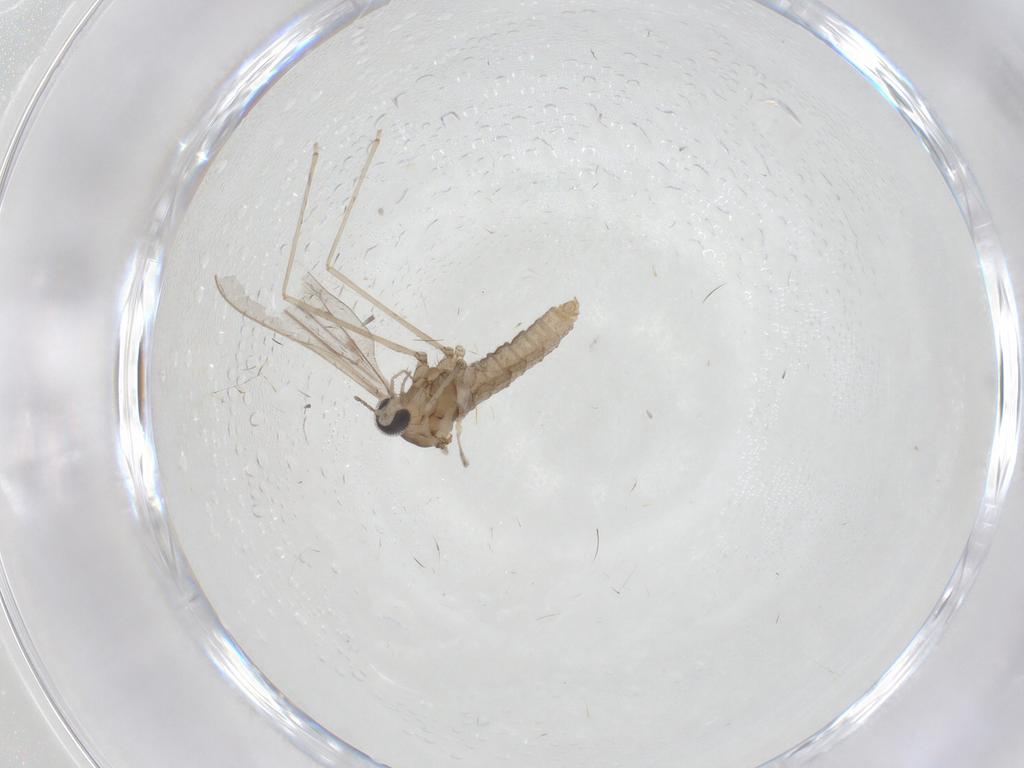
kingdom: Animalia
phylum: Arthropoda
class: Insecta
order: Diptera
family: Cecidomyiidae
